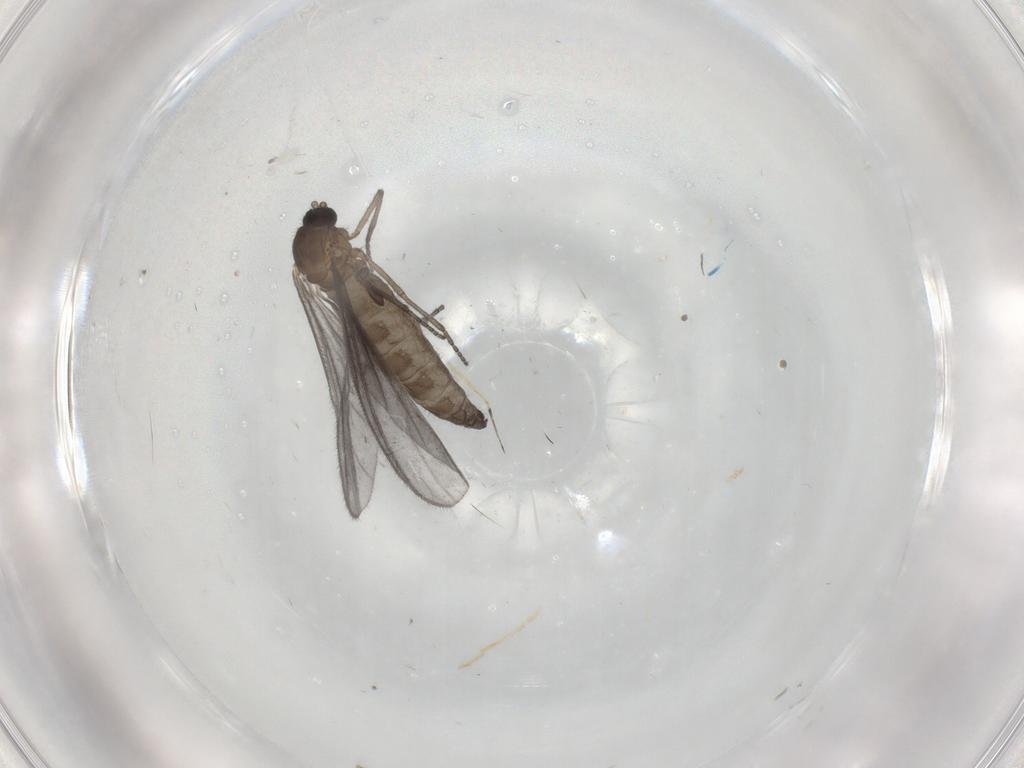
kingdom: Animalia
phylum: Arthropoda
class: Insecta
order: Diptera
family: Sciaridae
